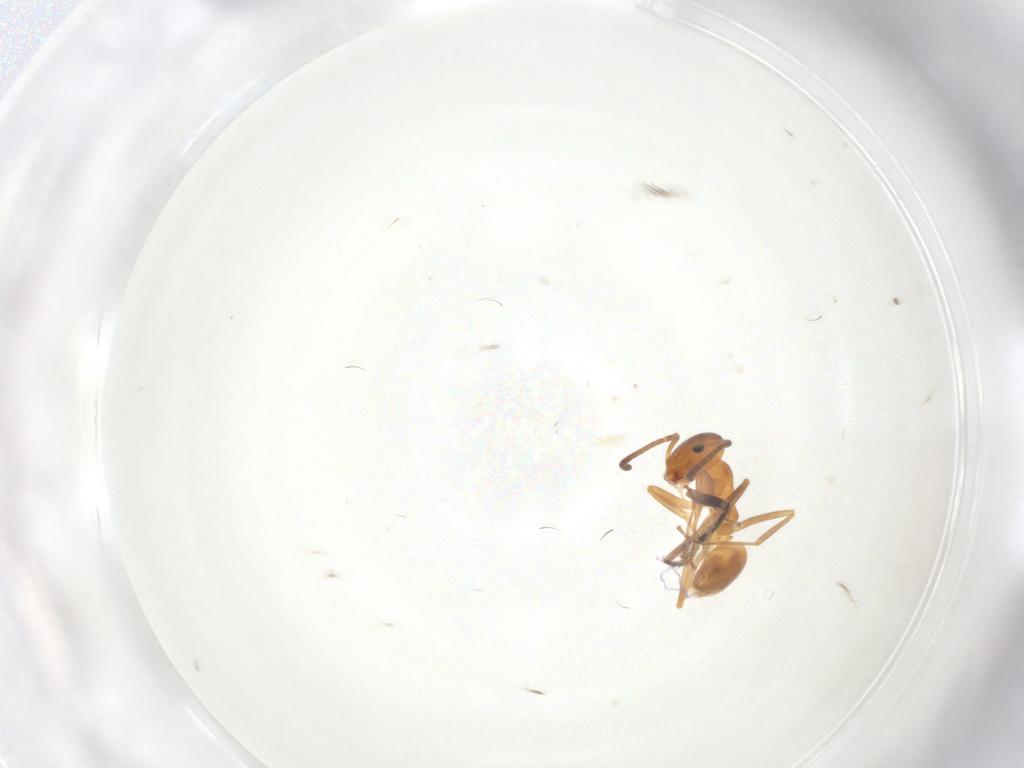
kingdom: Animalia
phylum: Arthropoda
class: Insecta
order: Hymenoptera
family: Formicidae
